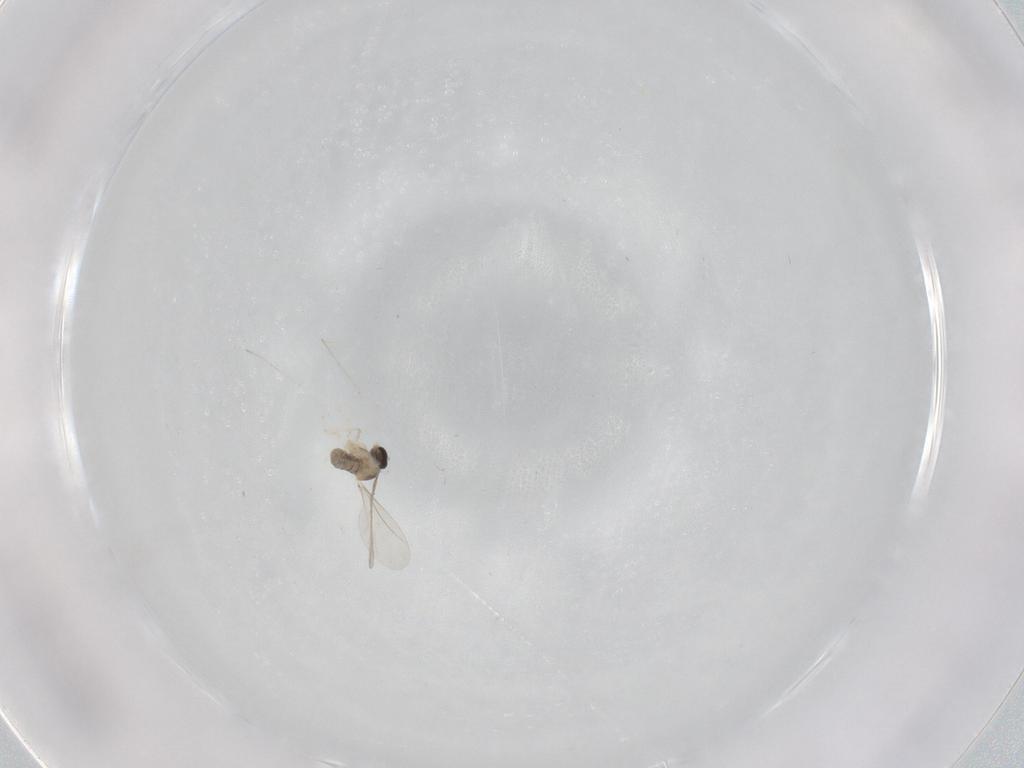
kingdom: Animalia
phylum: Arthropoda
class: Insecta
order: Diptera
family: Cecidomyiidae
